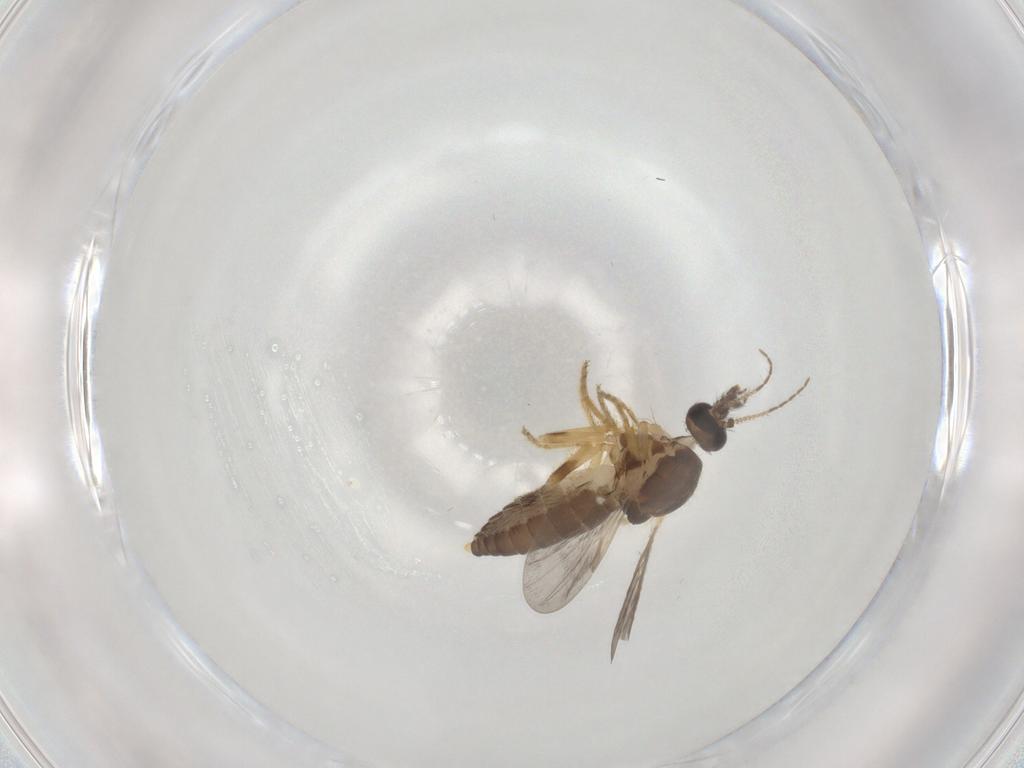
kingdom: Animalia
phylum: Arthropoda
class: Insecta
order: Diptera
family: Ceratopogonidae
